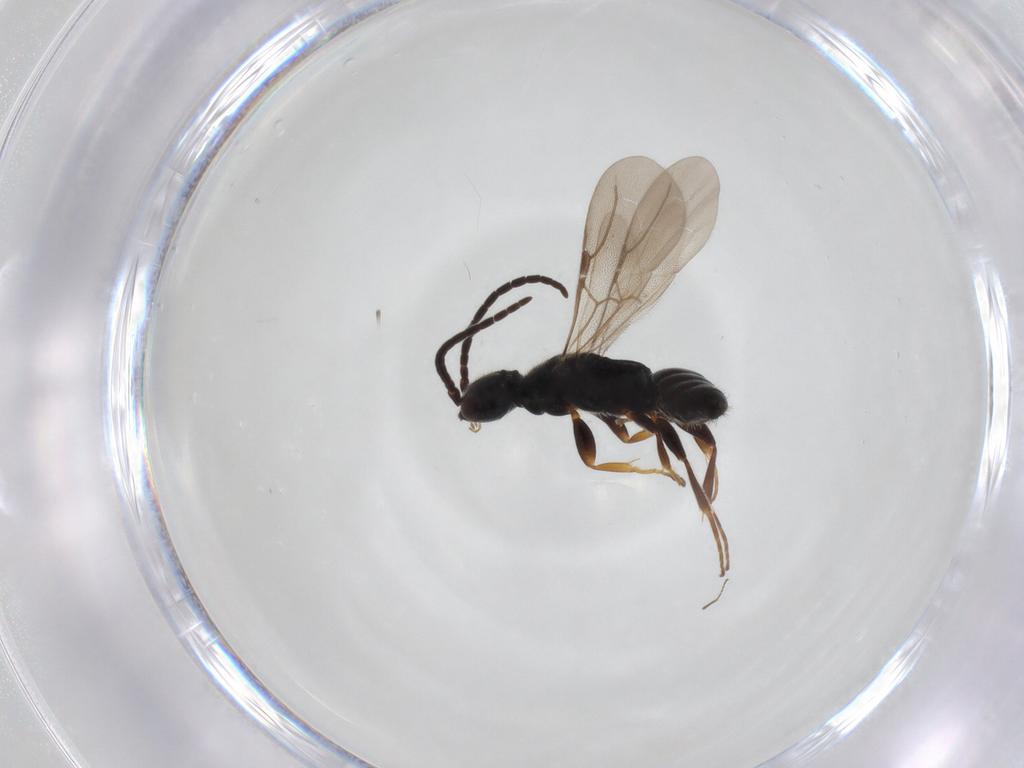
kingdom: Animalia
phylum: Arthropoda
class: Insecta
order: Hymenoptera
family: Bethylidae
